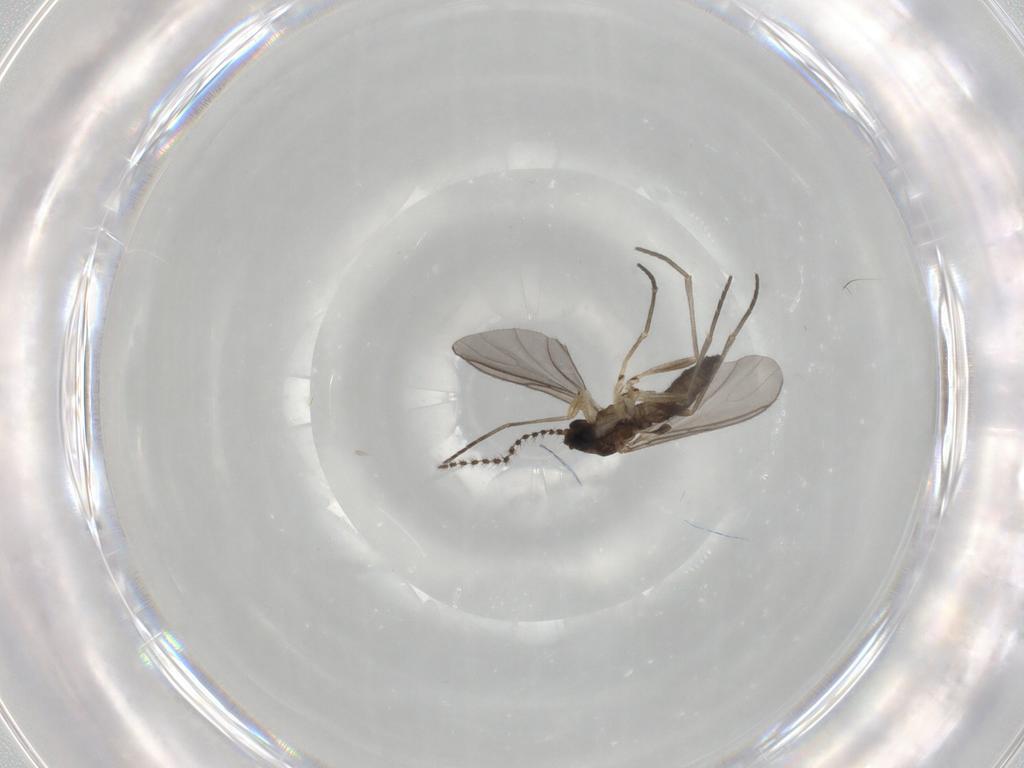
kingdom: Animalia
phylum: Arthropoda
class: Insecta
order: Diptera
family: Sciaridae
